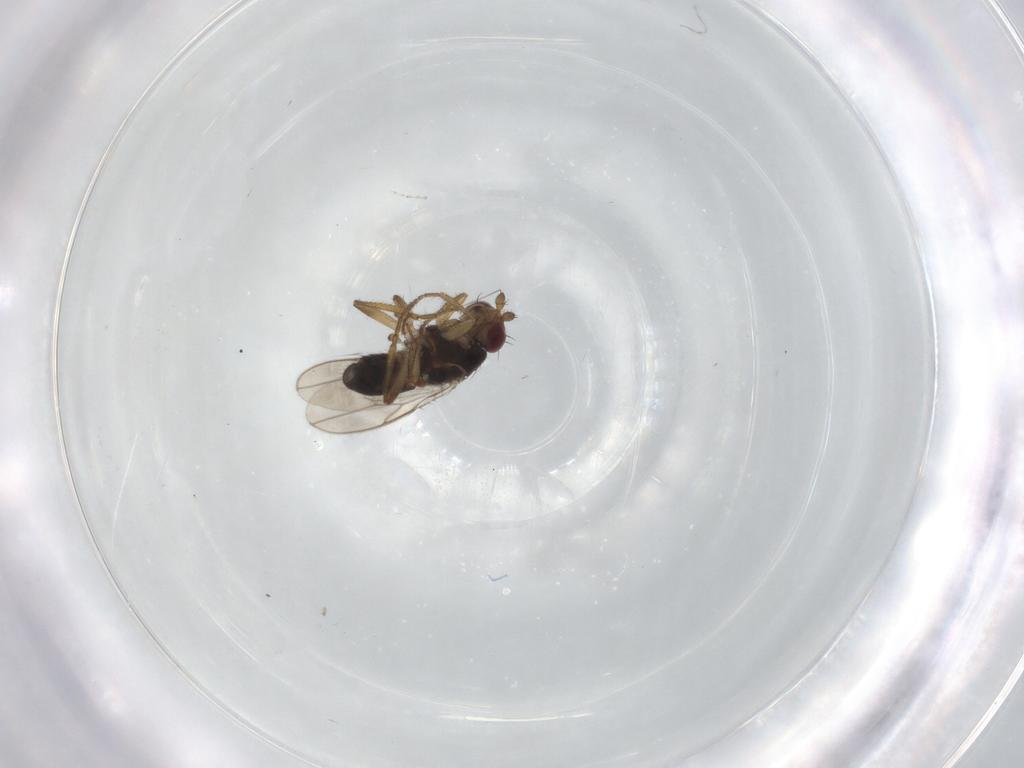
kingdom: Animalia
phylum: Arthropoda
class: Insecta
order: Diptera
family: Sphaeroceridae
